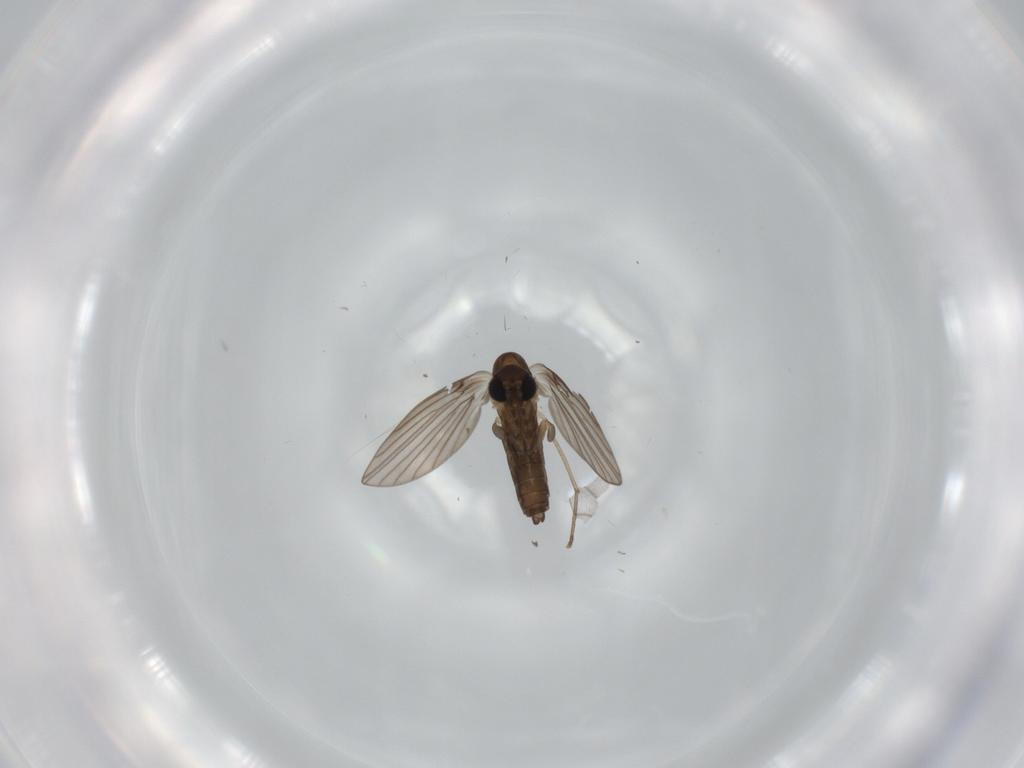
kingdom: Animalia
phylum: Arthropoda
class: Insecta
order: Diptera
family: Psychodidae
